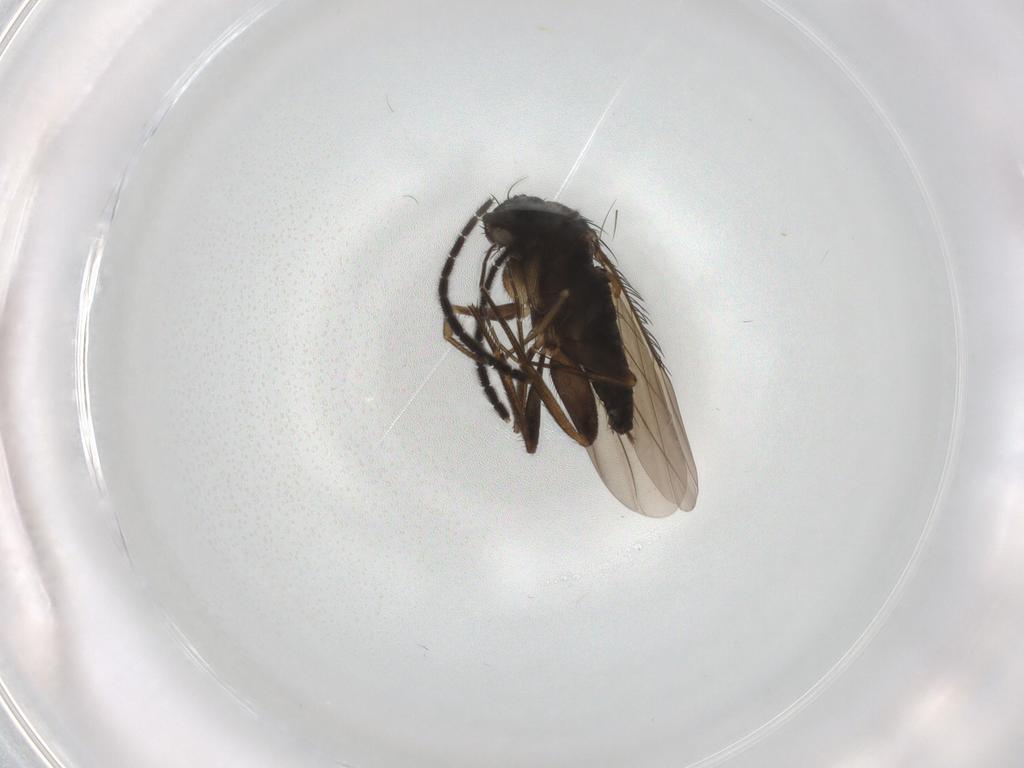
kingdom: Animalia
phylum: Arthropoda
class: Insecta
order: Diptera
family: Phoridae
